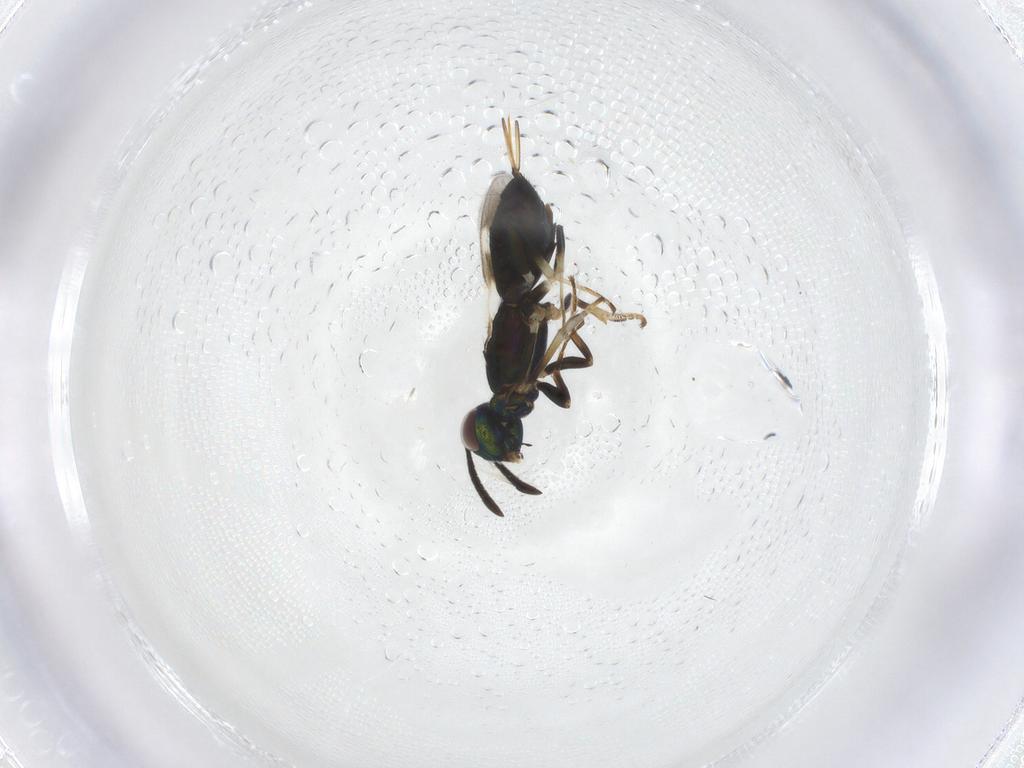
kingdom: Animalia
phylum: Arthropoda
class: Insecta
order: Hymenoptera
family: Eupelmidae
